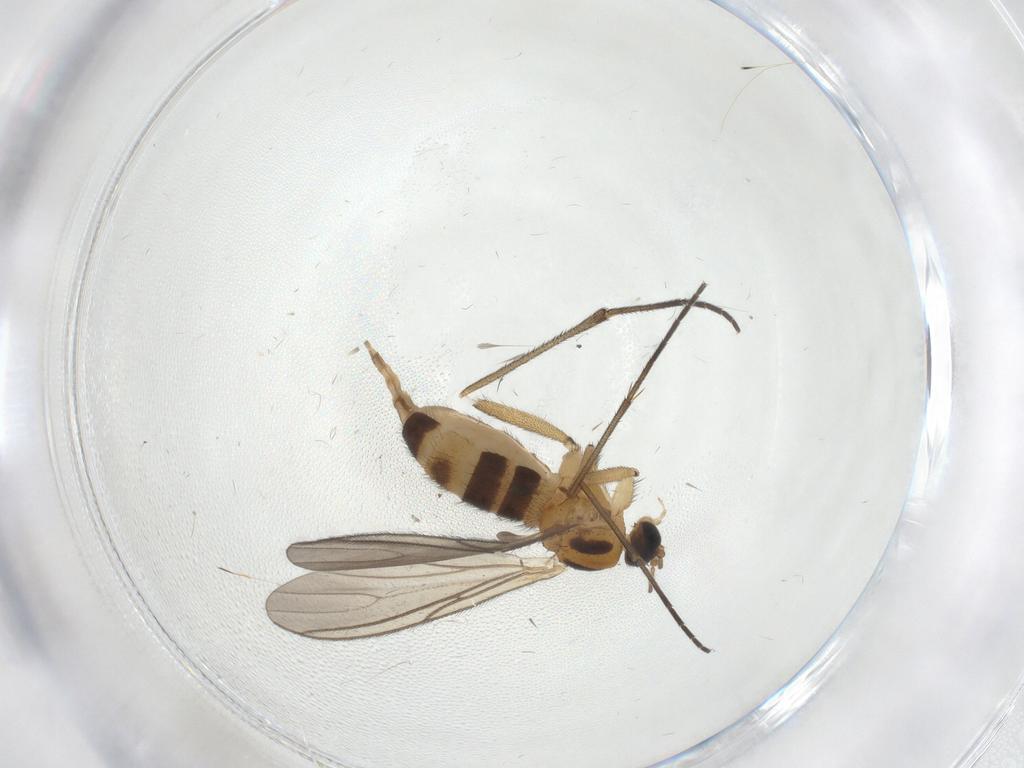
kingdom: Animalia
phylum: Arthropoda
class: Insecta
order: Diptera
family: Sciaridae
